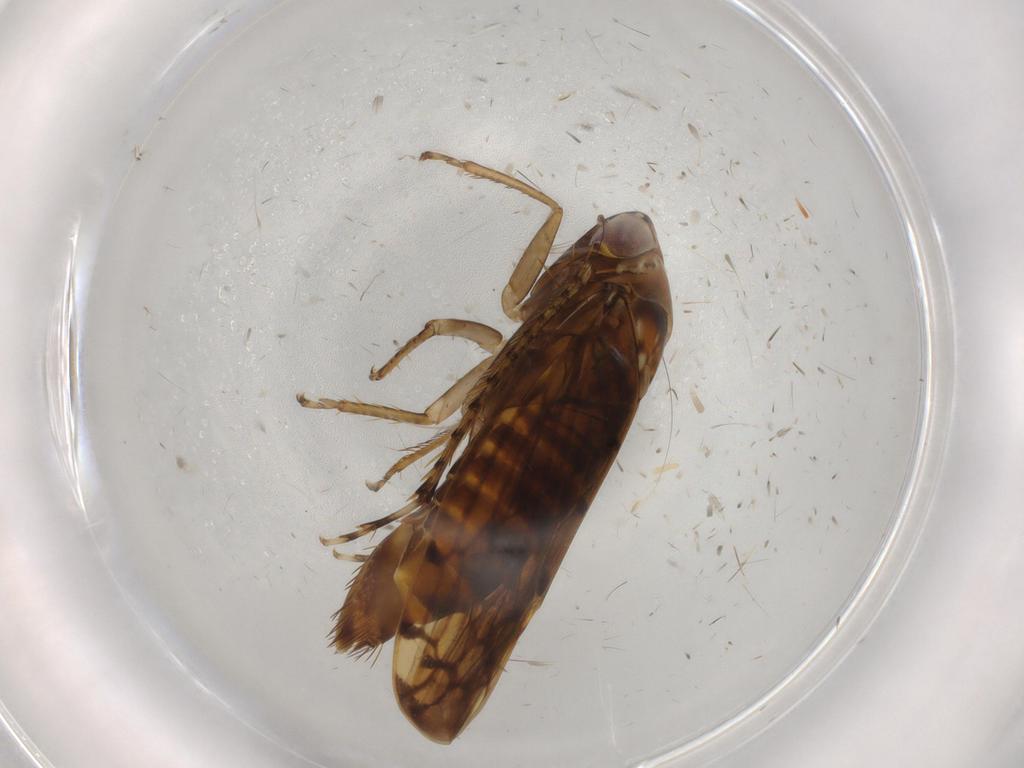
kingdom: Animalia
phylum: Arthropoda
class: Insecta
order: Hemiptera
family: Cicadellidae
